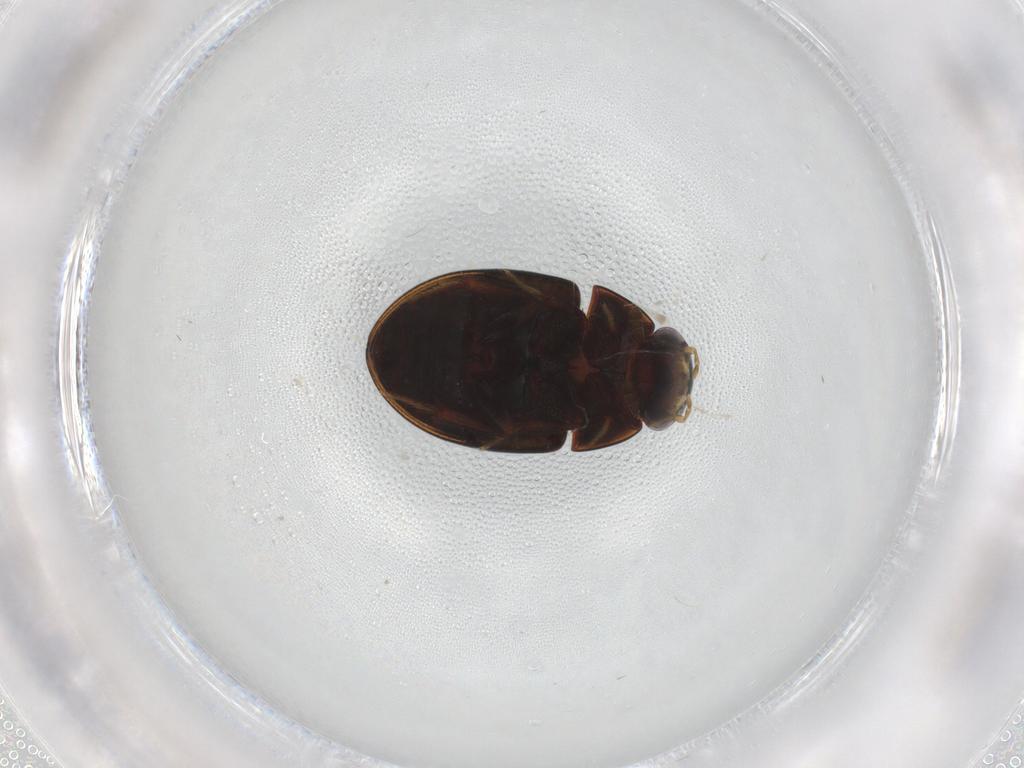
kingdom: Animalia
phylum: Arthropoda
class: Insecta
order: Coleoptera
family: Hydrophilidae
